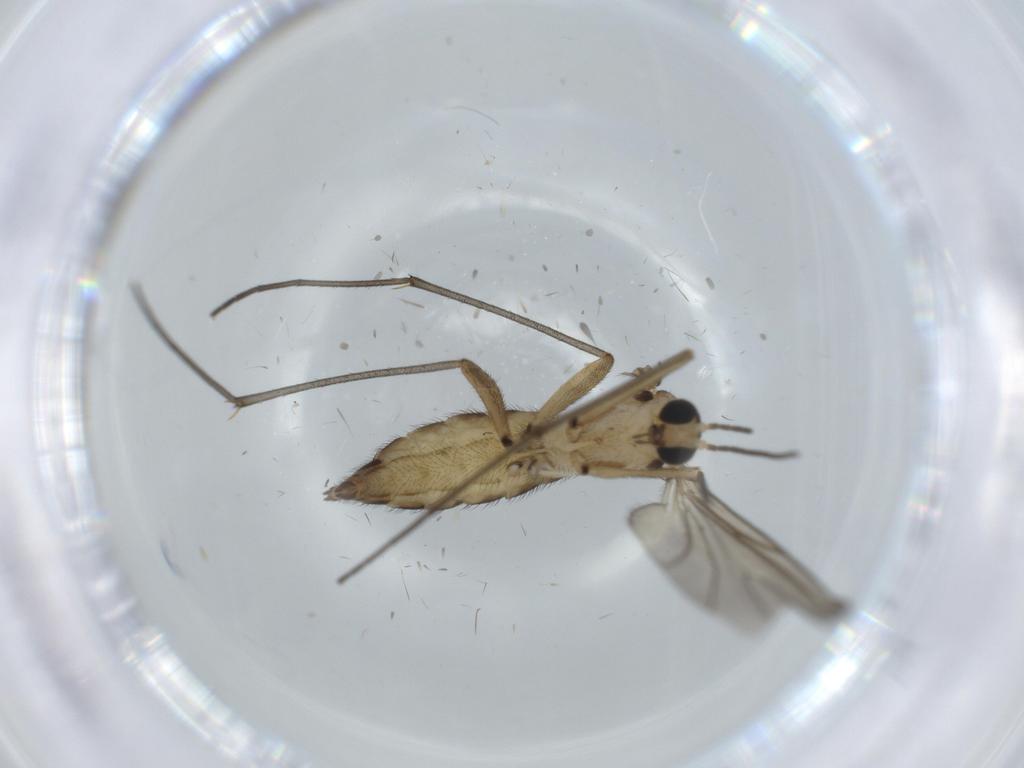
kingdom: Animalia
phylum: Arthropoda
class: Insecta
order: Diptera
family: Sciaridae
